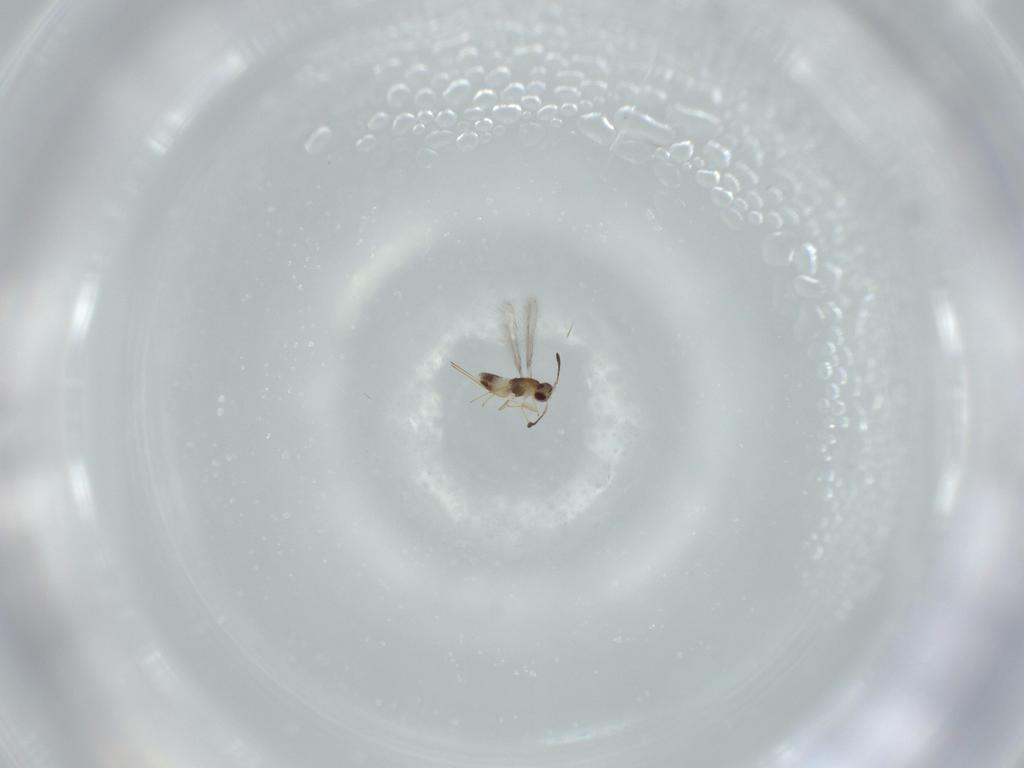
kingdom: Animalia
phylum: Arthropoda
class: Insecta
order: Hymenoptera
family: Mymaridae
